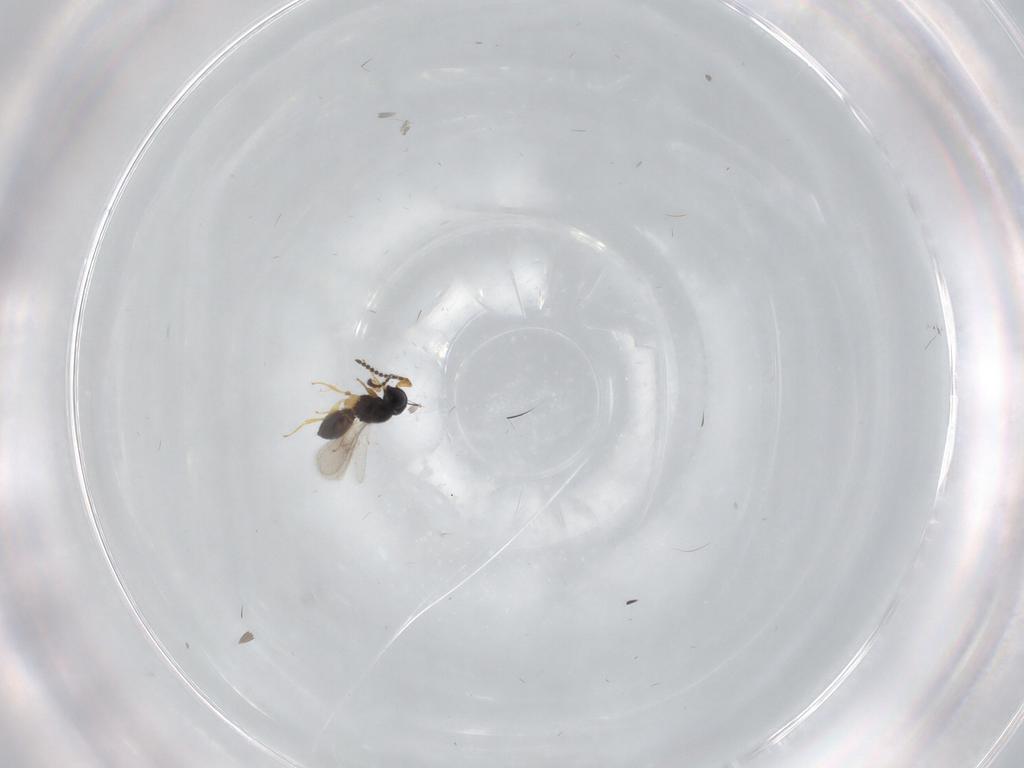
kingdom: Animalia
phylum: Arthropoda
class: Insecta
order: Hymenoptera
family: Scelionidae
